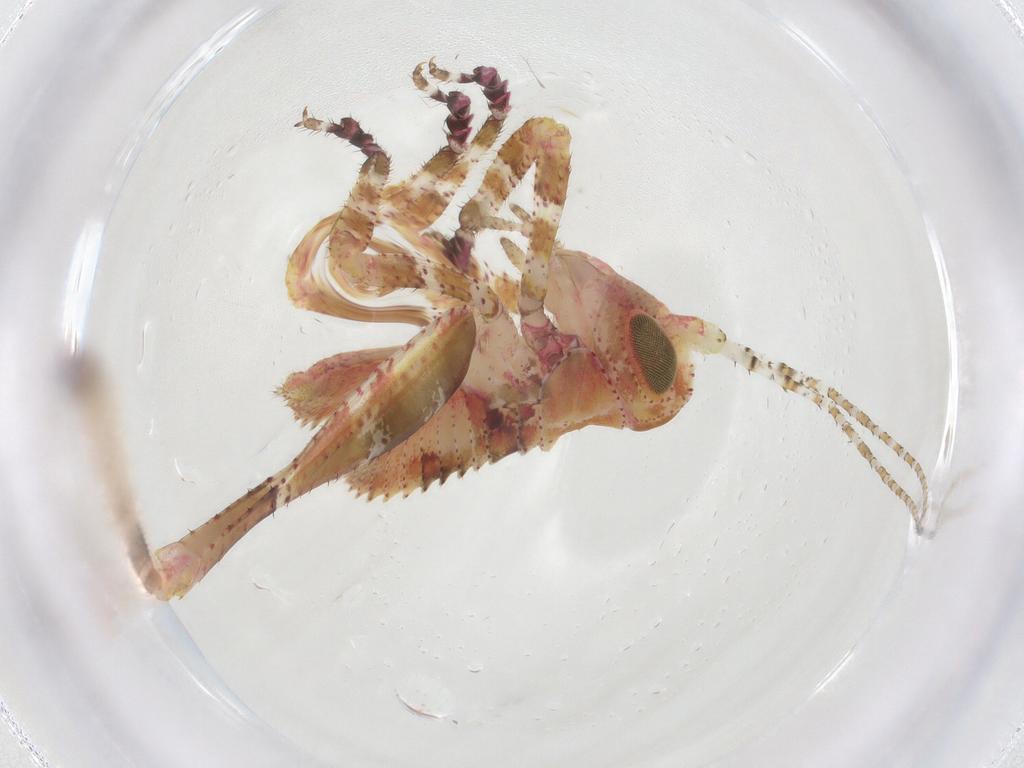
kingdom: Animalia
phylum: Arthropoda
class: Insecta
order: Orthoptera
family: Tettigoniidae
